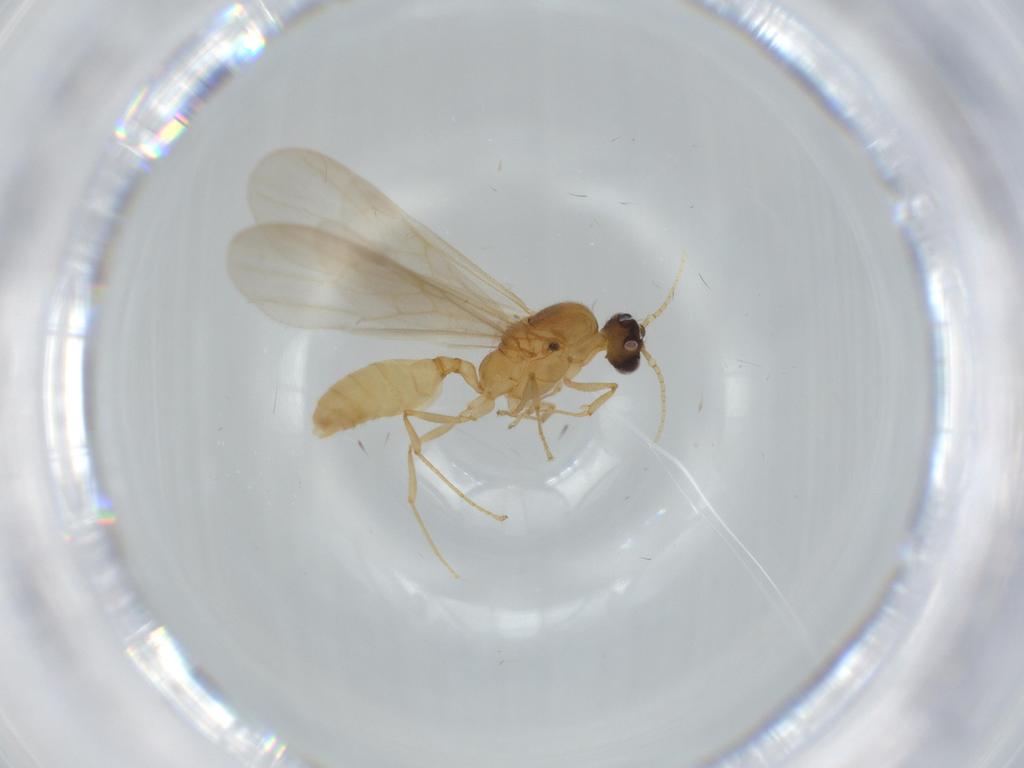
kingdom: Animalia
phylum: Arthropoda
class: Insecta
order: Hymenoptera
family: Formicidae
